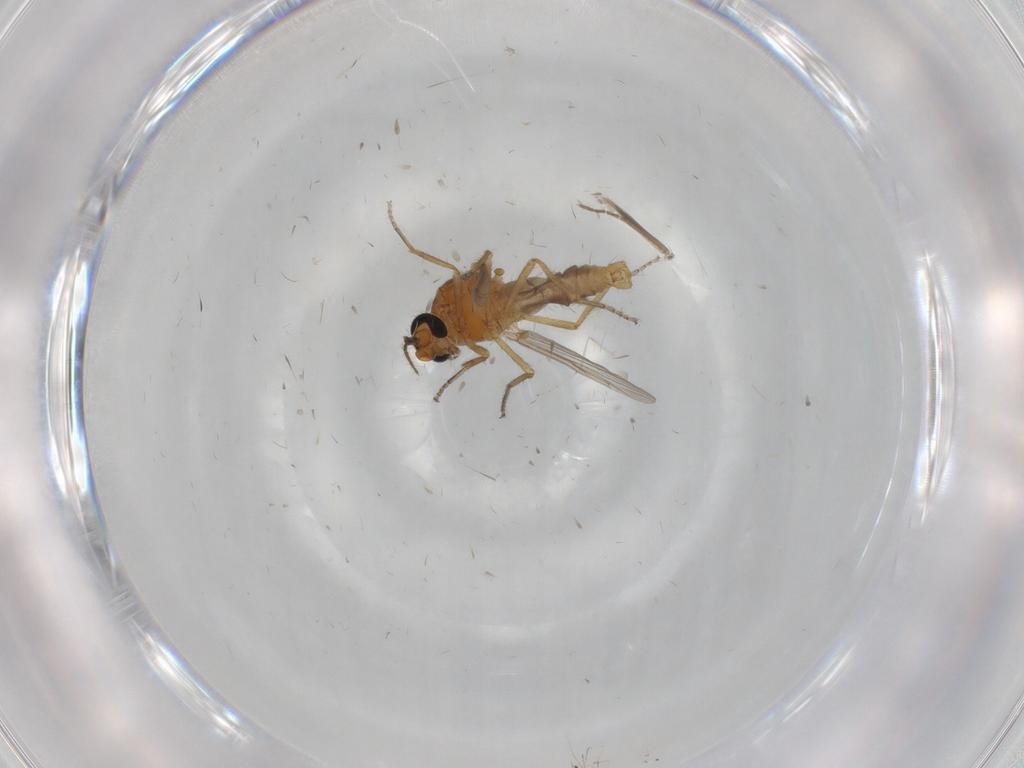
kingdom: Animalia
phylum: Arthropoda
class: Insecta
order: Diptera
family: Ceratopogonidae
